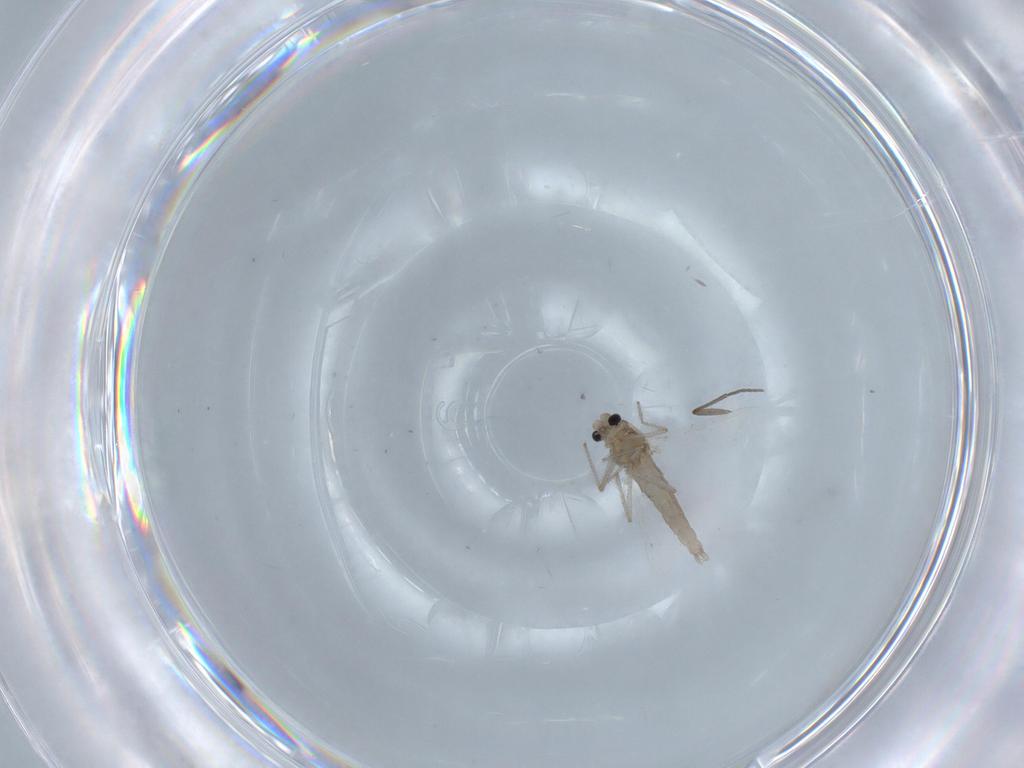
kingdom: Animalia
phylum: Arthropoda
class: Insecta
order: Diptera
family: Chironomidae
